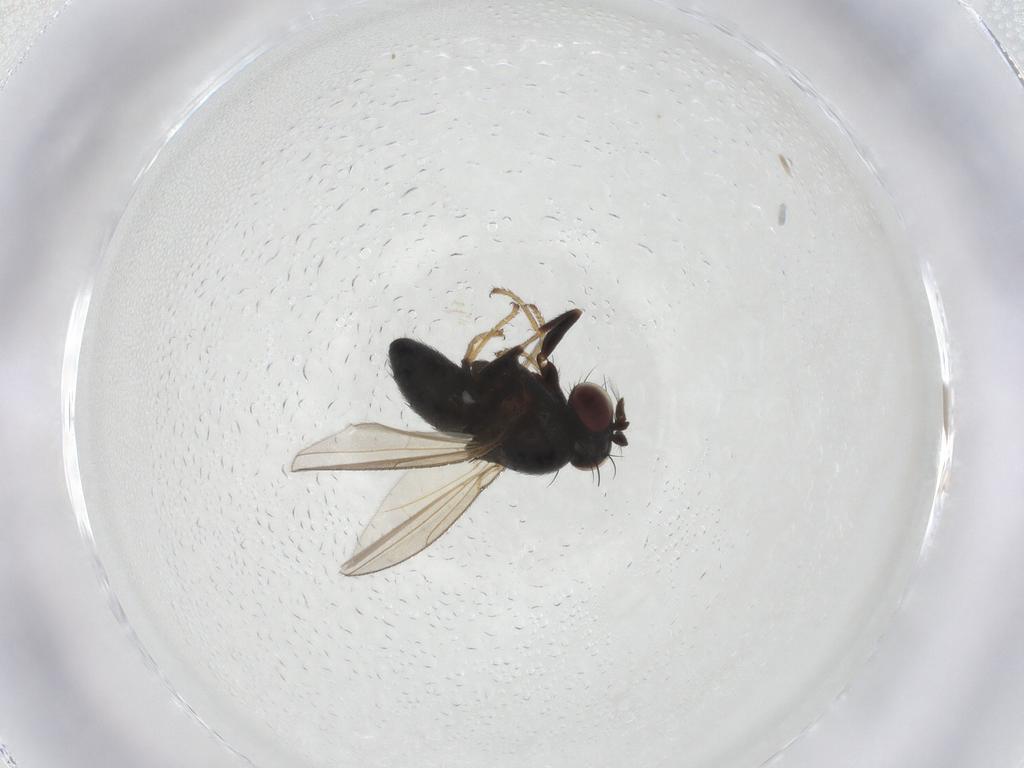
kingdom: Animalia
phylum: Arthropoda
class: Insecta
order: Diptera
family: Ephydridae
